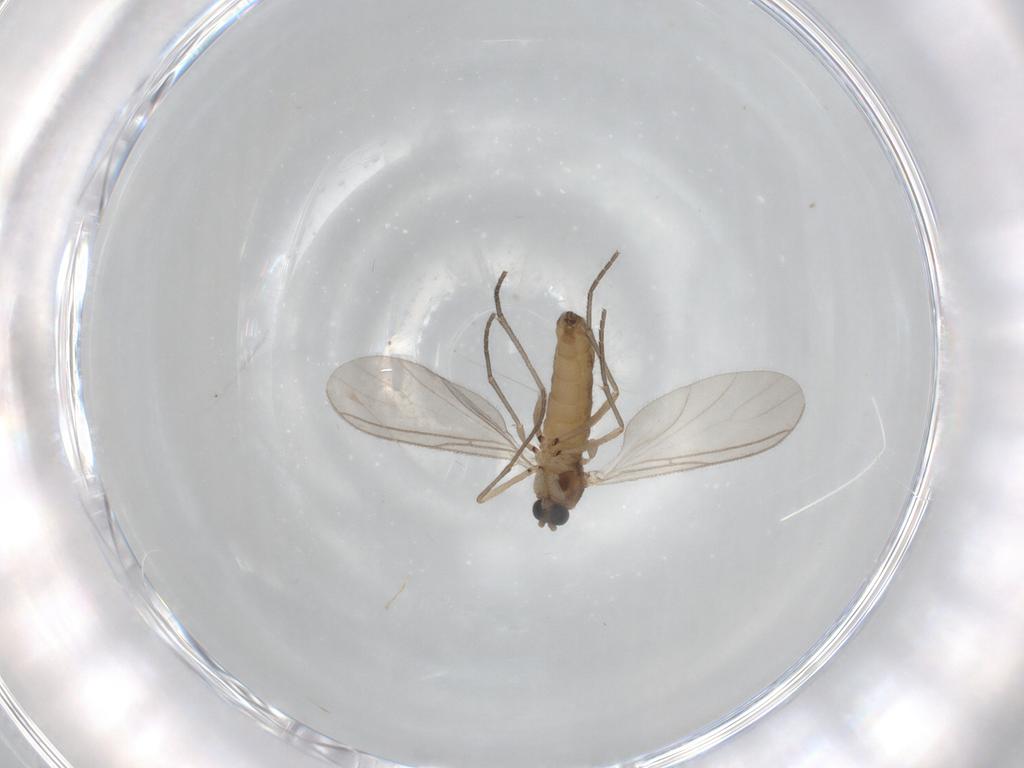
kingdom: Animalia
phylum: Arthropoda
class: Insecta
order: Diptera
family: Sciaridae
